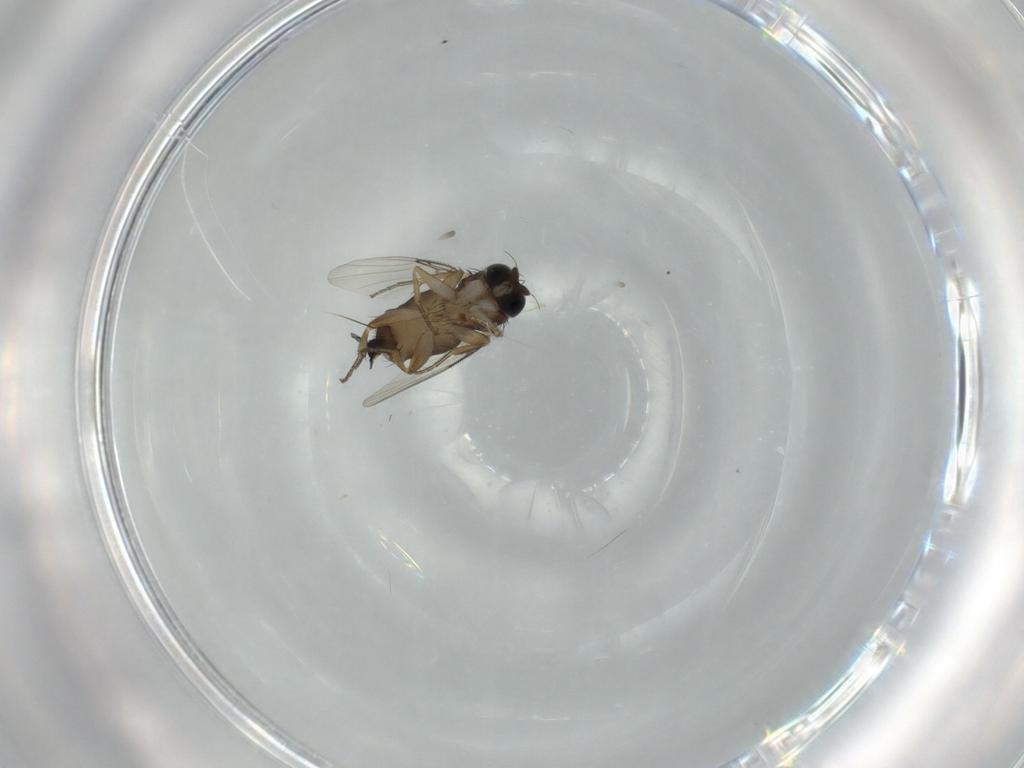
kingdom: Animalia
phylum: Arthropoda
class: Insecta
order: Diptera
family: Phoridae
